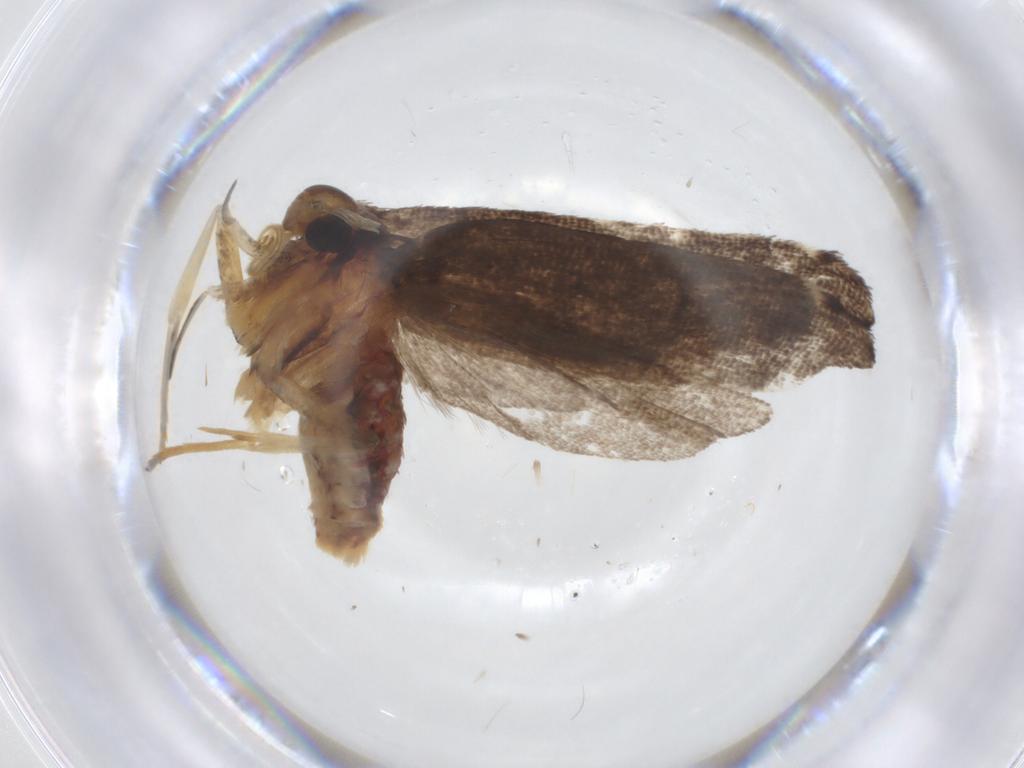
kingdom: Animalia
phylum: Arthropoda
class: Insecta
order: Lepidoptera
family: Lecithoceridae
